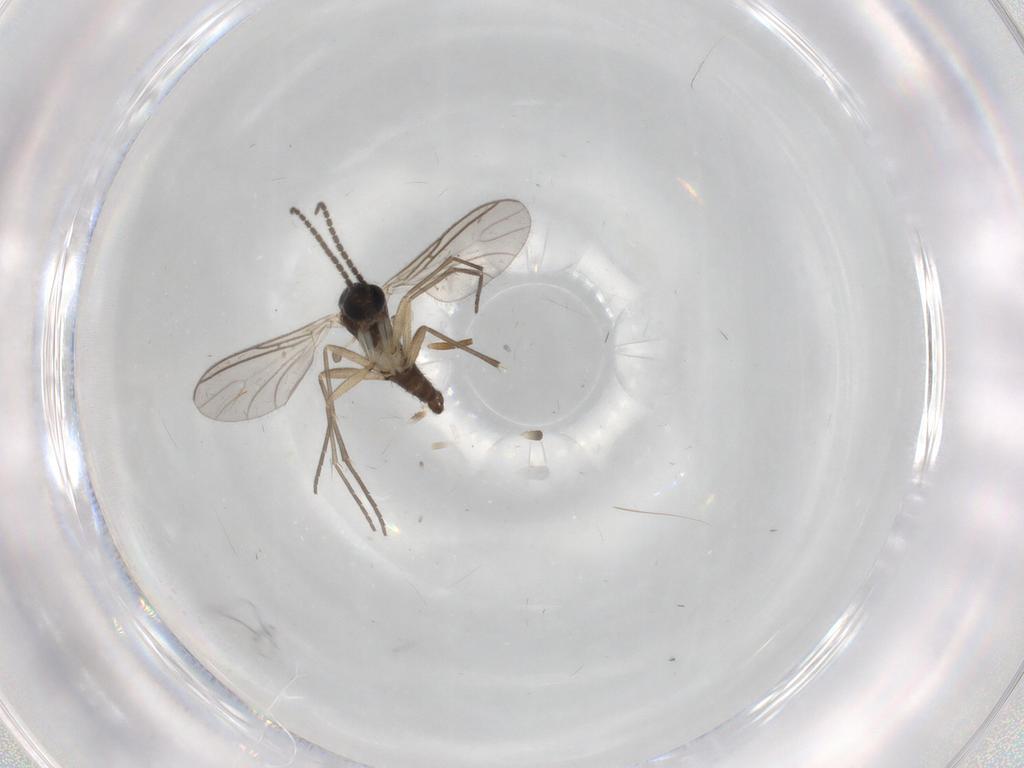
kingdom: Animalia
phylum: Arthropoda
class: Insecta
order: Diptera
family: Sciaridae
